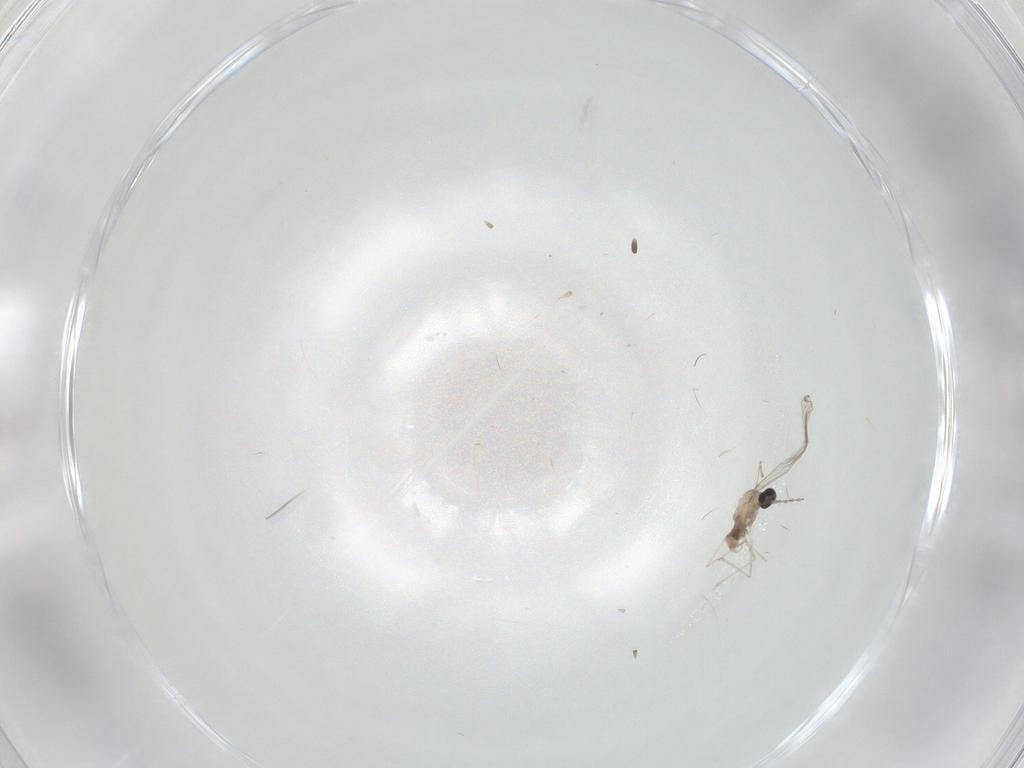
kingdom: Animalia
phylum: Arthropoda
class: Insecta
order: Diptera
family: Cecidomyiidae
